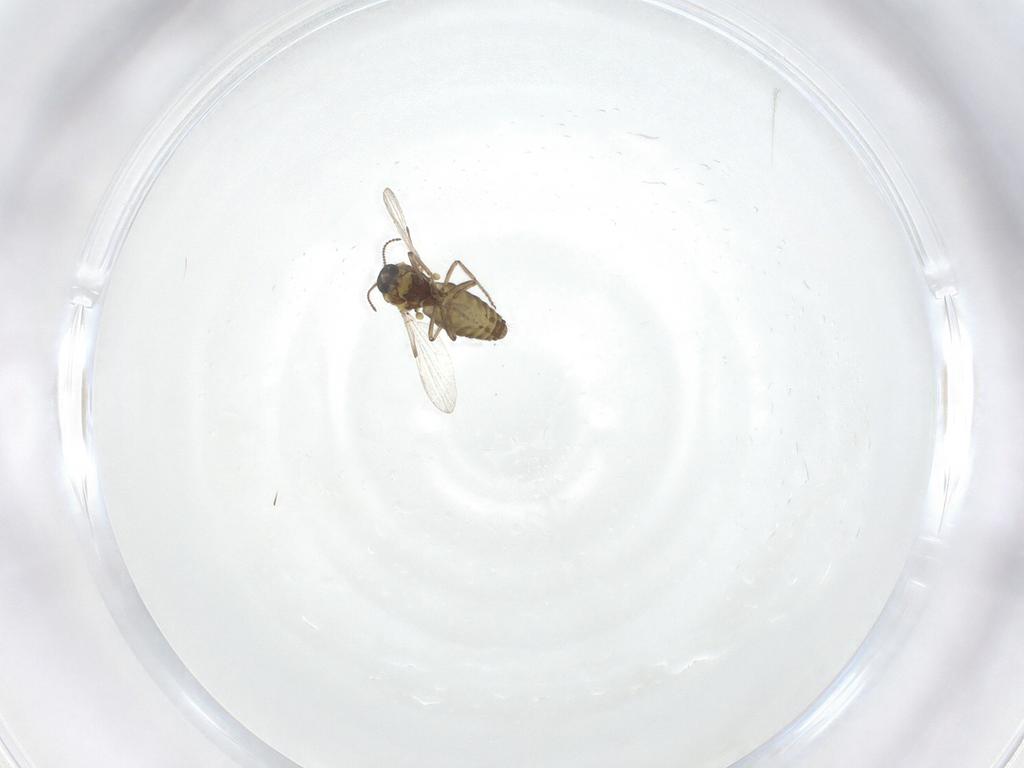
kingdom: Animalia
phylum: Arthropoda
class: Insecta
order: Diptera
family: Ceratopogonidae
